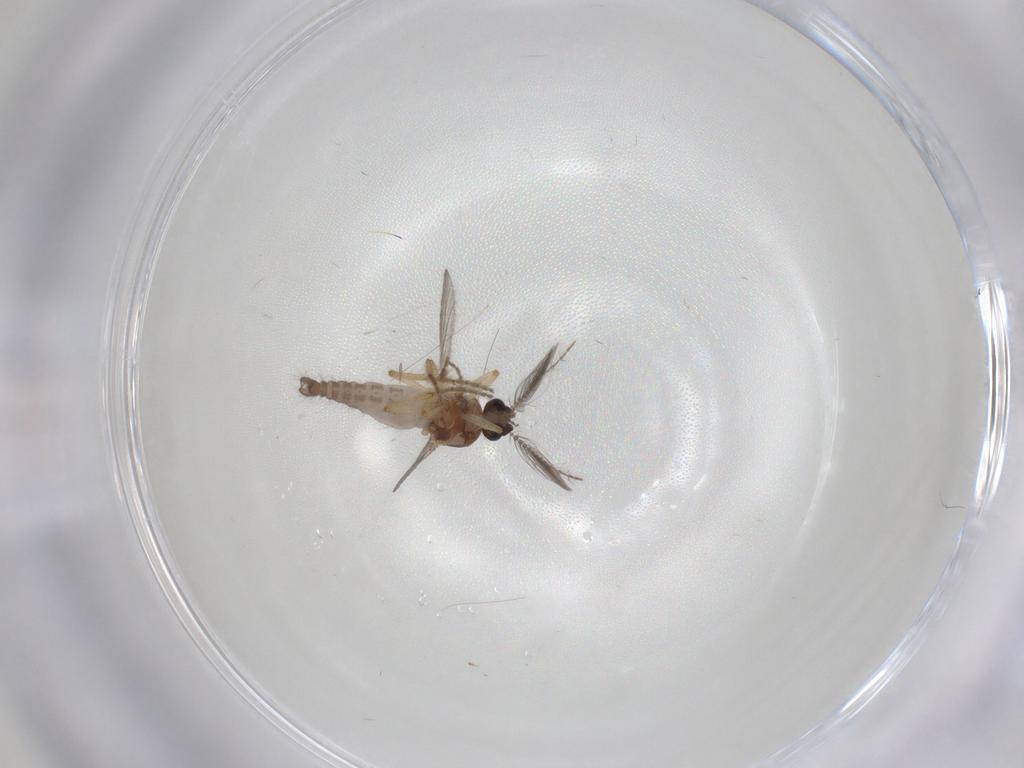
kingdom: Animalia
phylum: Arthropoda
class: Insecta
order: Diptera
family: Ceratopogonidae
